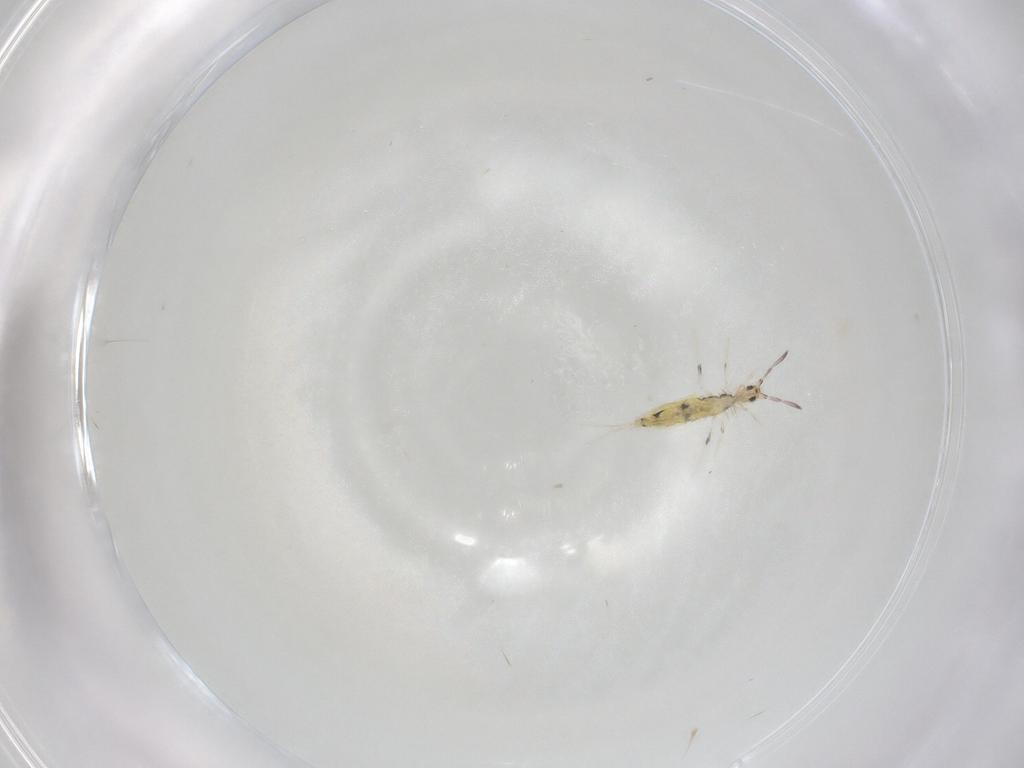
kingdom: Animalia
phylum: Arthropoda
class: Collembola
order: Entomobryomorpha
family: Entomobryidae
